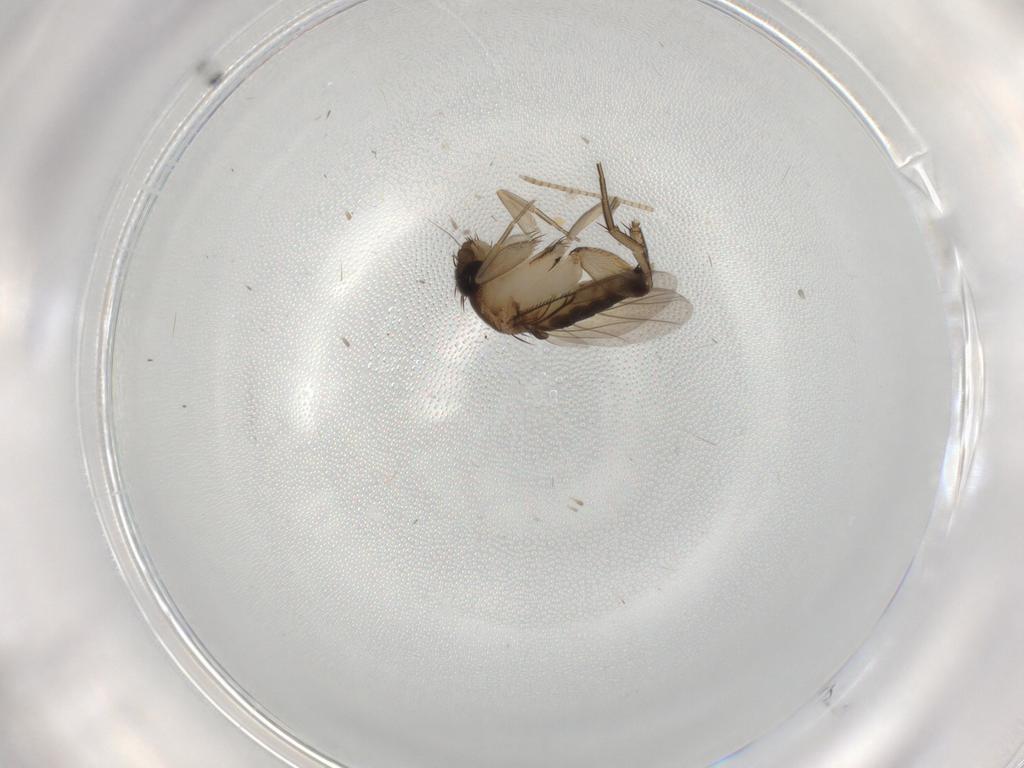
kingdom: Animalia
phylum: Arthropoda
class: Insecta
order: Diptera
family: Phoridae
